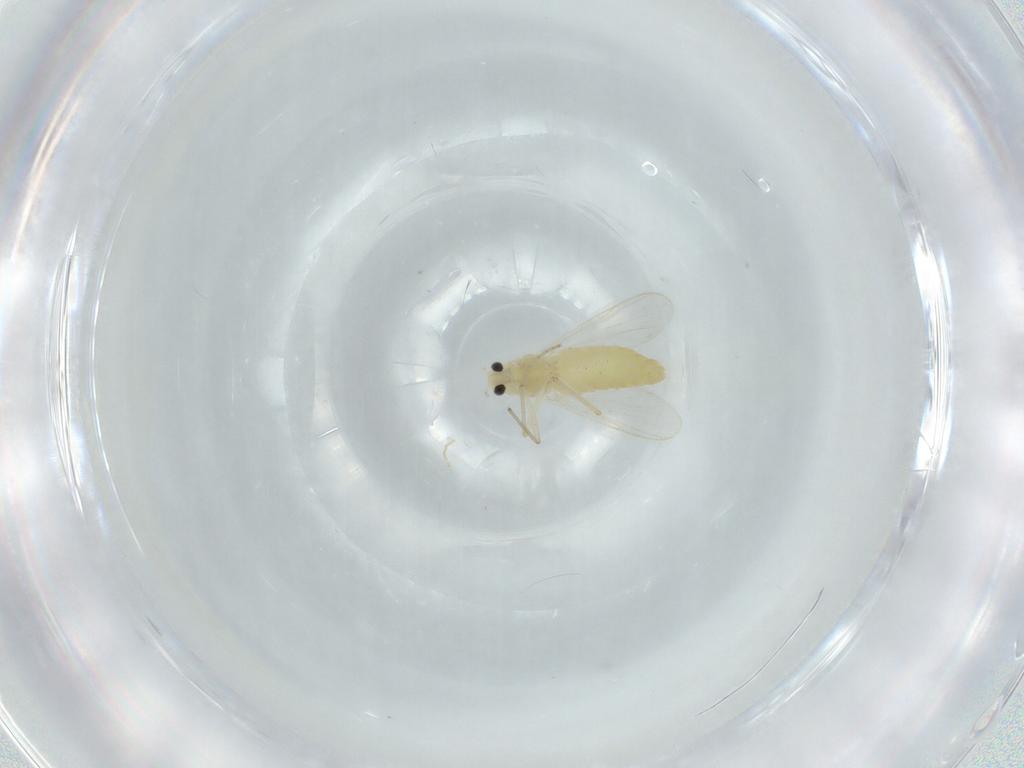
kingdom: Animalia
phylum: Arthropoda
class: Insecta
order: Diptera
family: Chironomidae
